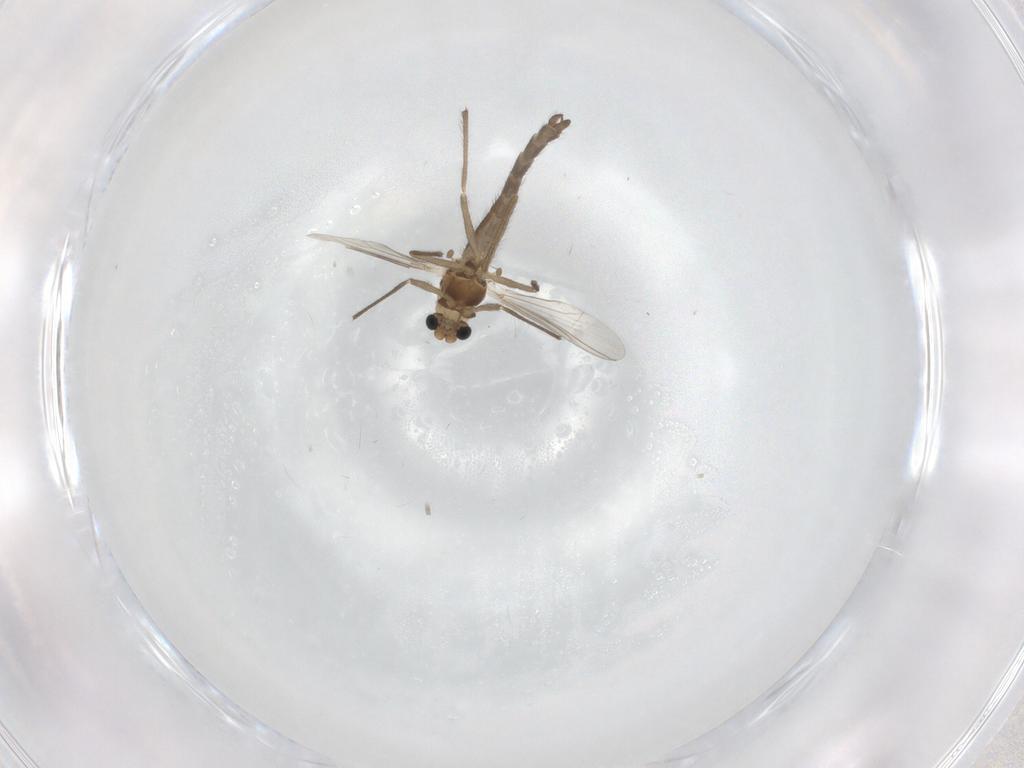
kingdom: Animalia
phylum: Arthropoda
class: Insecta
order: Diptera
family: Chironomidae
